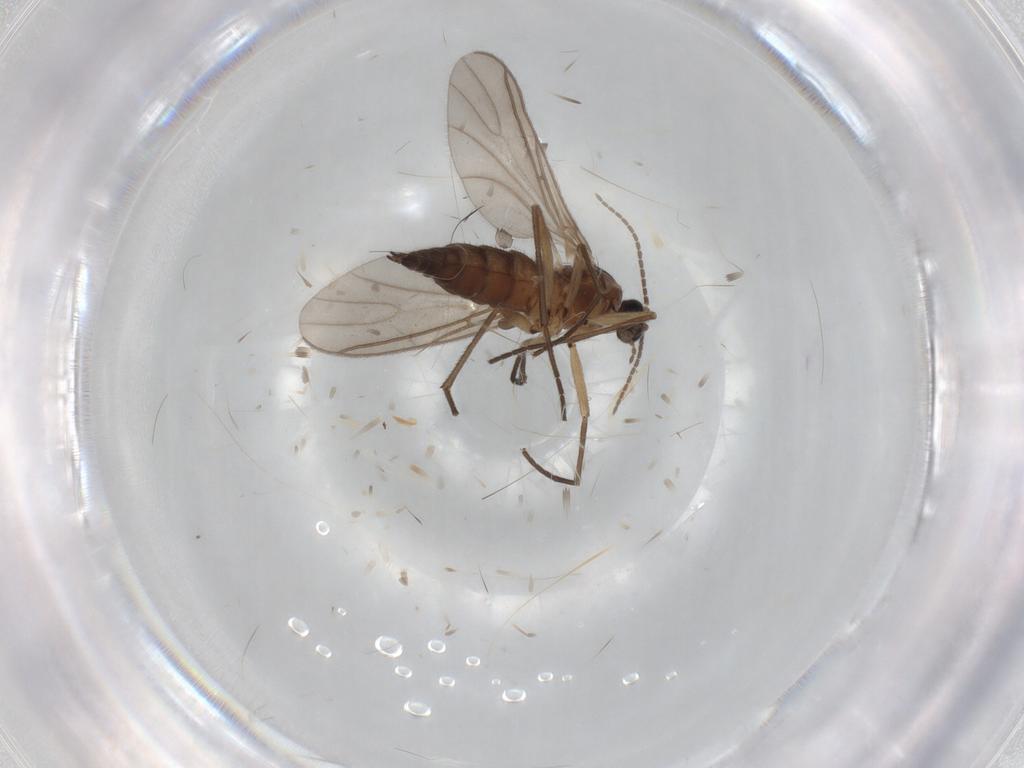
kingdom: Animalia
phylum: Arthropoda
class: Insecta
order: Diptera
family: Sciaridae
